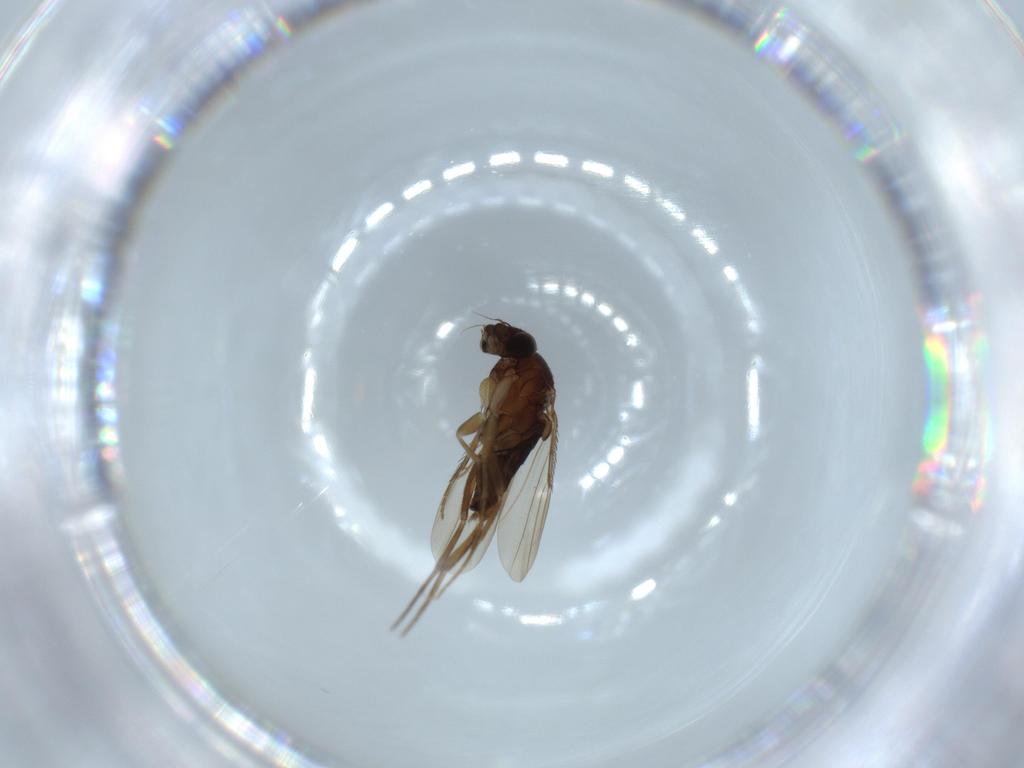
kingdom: Animalia
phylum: Arthropoda
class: Insecta
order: Diptera
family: Phoridae
